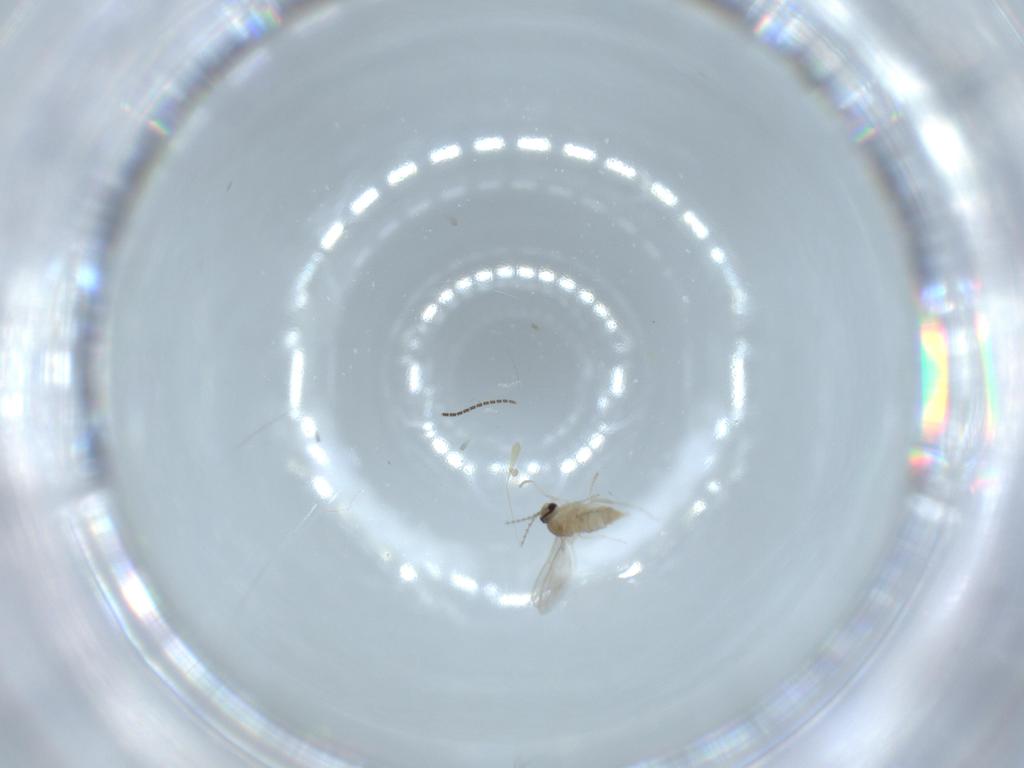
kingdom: Animalia
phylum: Arthropoda
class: Insecta
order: Diptera
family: Cecidomyiidae
